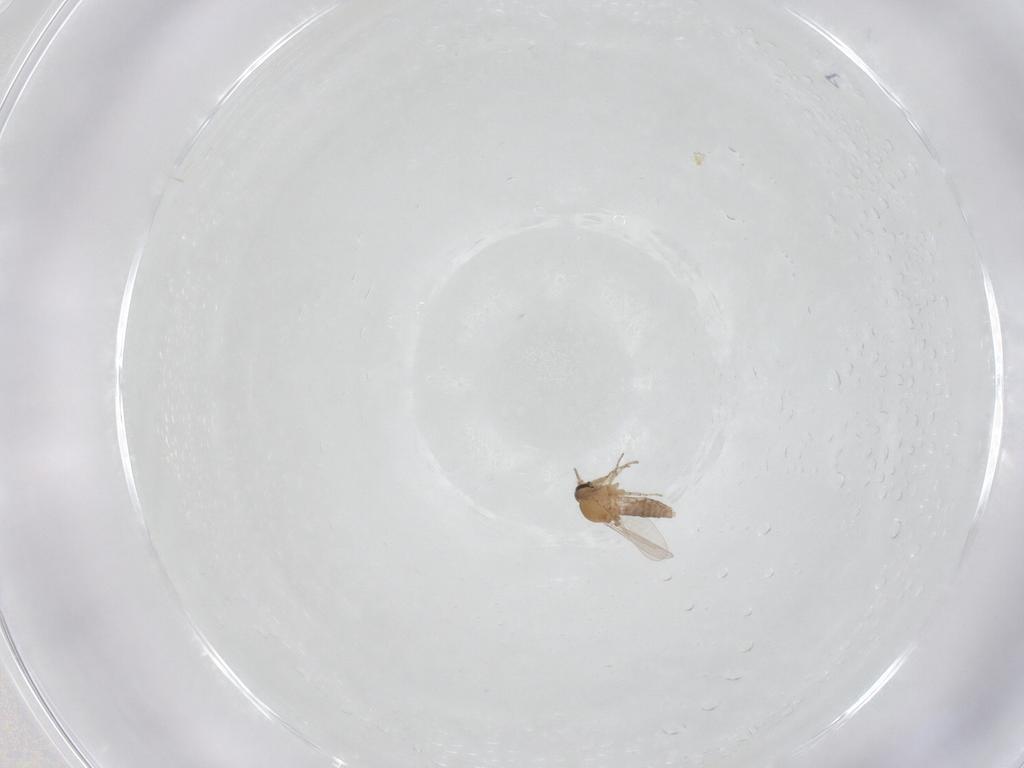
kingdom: Animalia
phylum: Arthropoda
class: Insecta
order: Diptera
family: Ceratopogonidae
